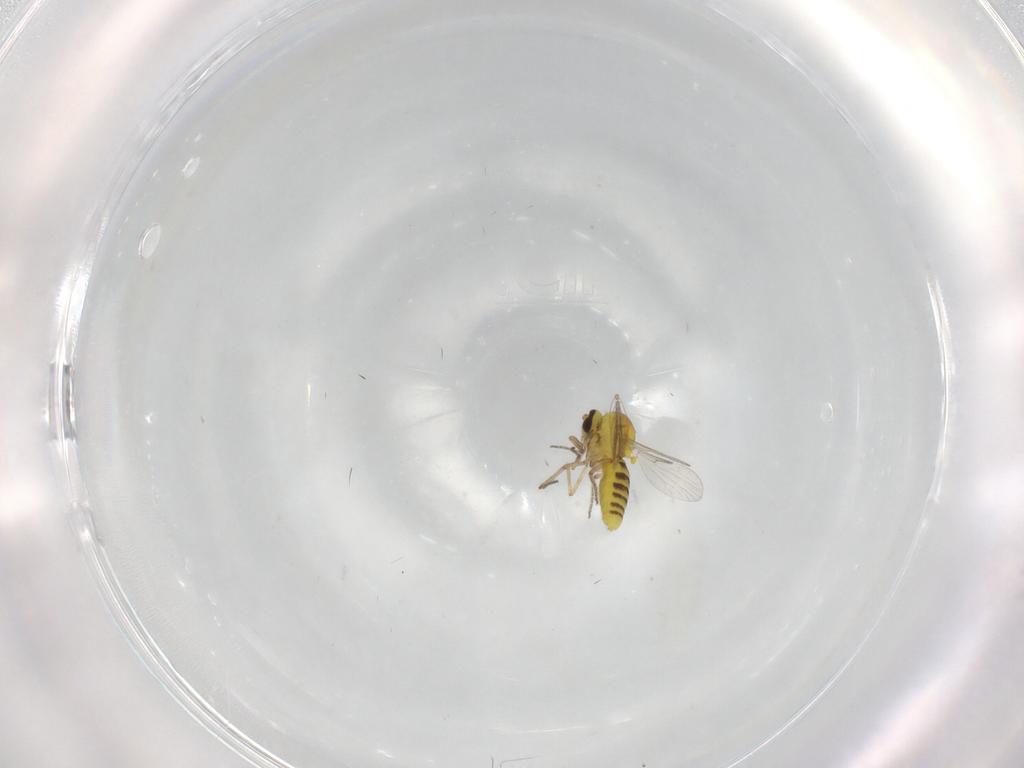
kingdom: Animalia
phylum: Arthropoda
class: Insecta
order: Diptera
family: Ceratopogonidae
